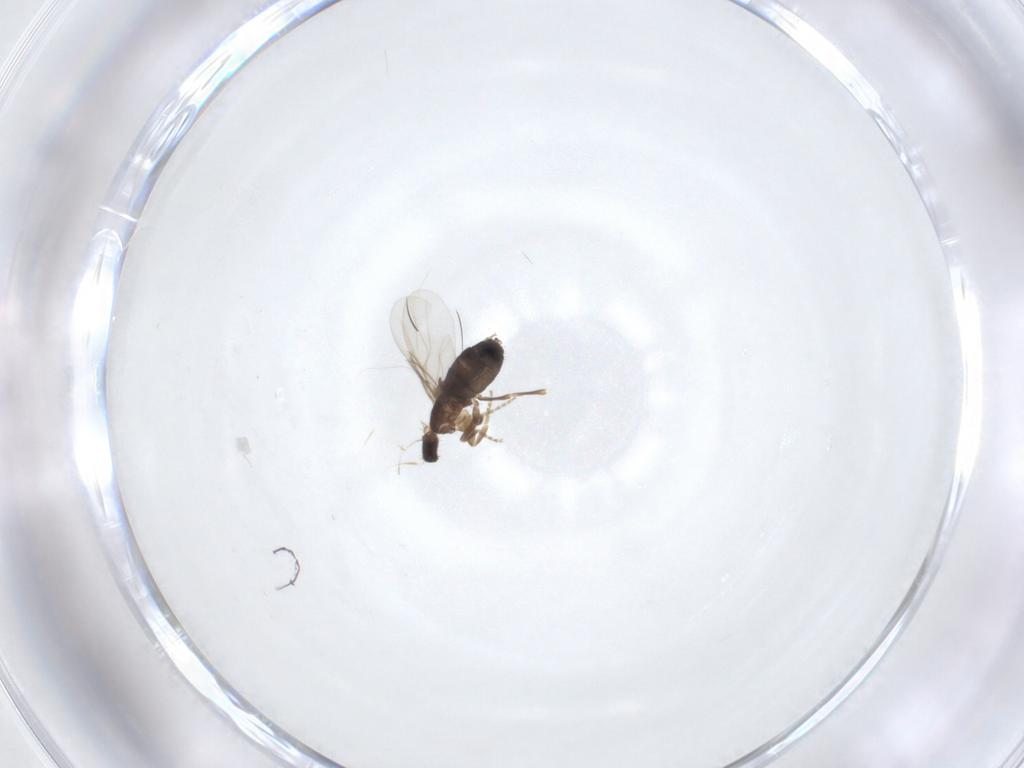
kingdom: Animalia
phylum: Arthropoda
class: Insecta
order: Diptera
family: Phoridae
